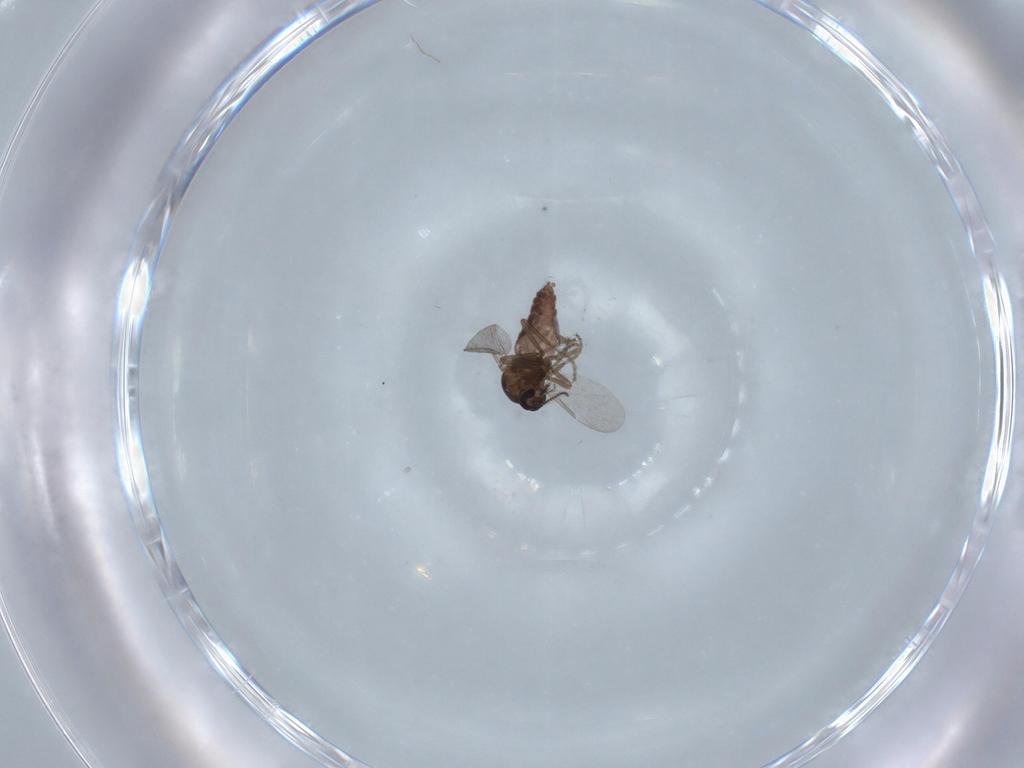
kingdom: Animalia
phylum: Arthropoda
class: Insecta
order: Diptera
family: Ceratopogonidae
